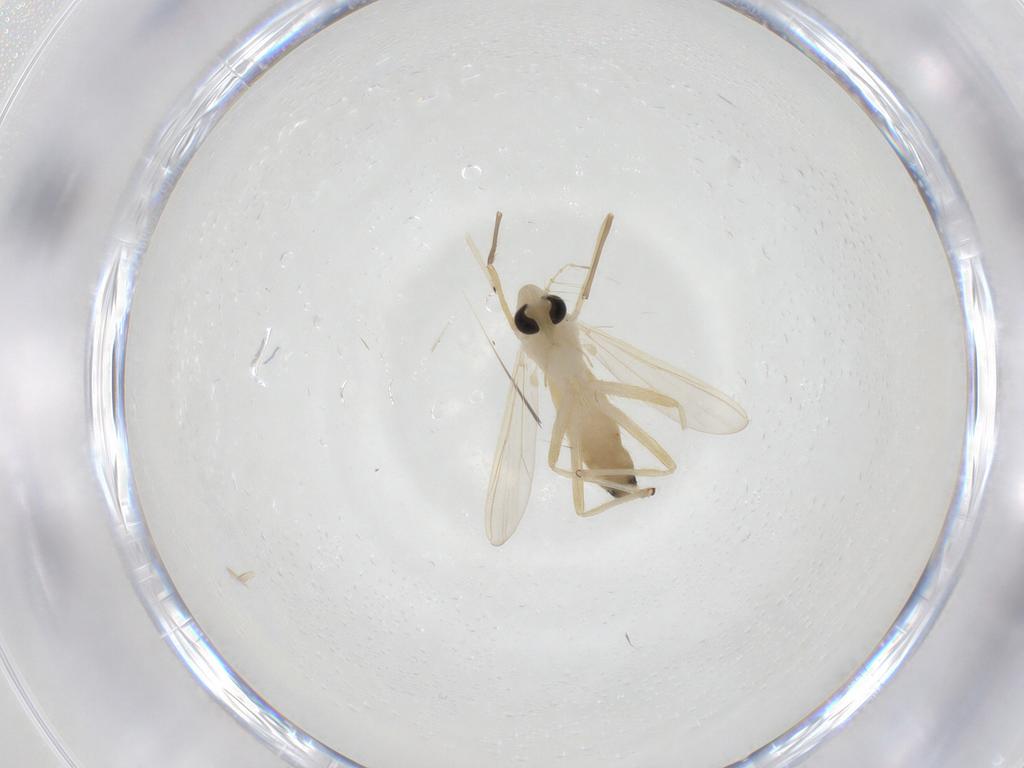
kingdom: Animalia
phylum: Arthropoda
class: Insecta
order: Diptera
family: Chironomidae
